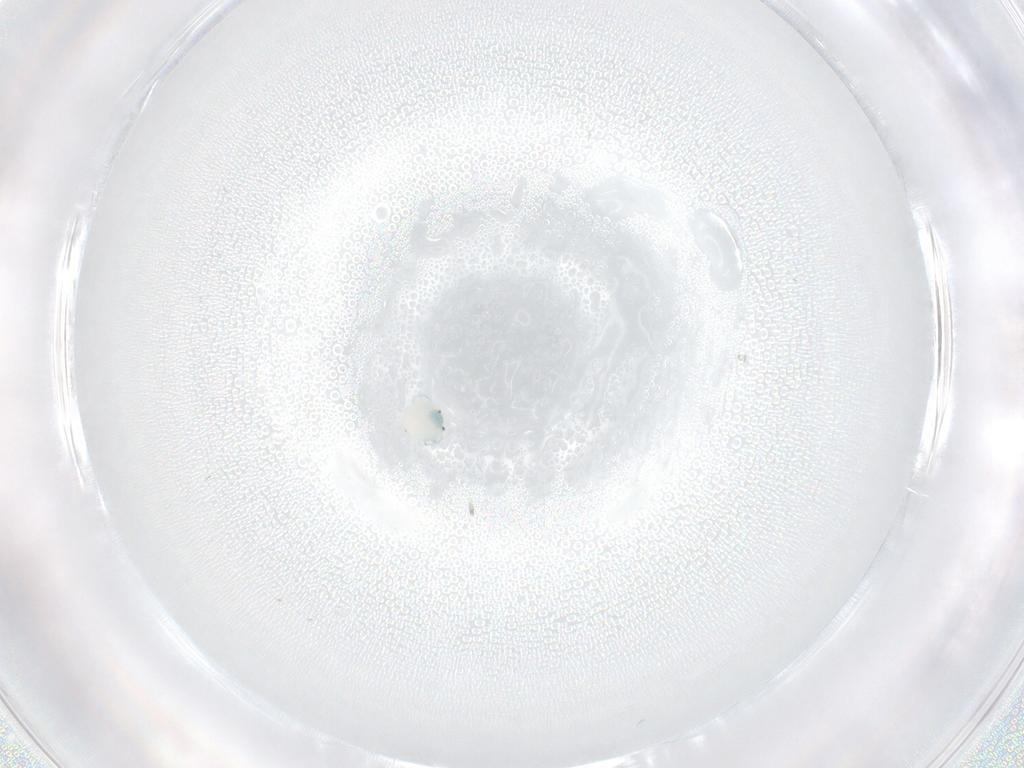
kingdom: Animalia
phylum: Arthropoda
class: Arachnida
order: Trombidiformes
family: Arrenuridae
